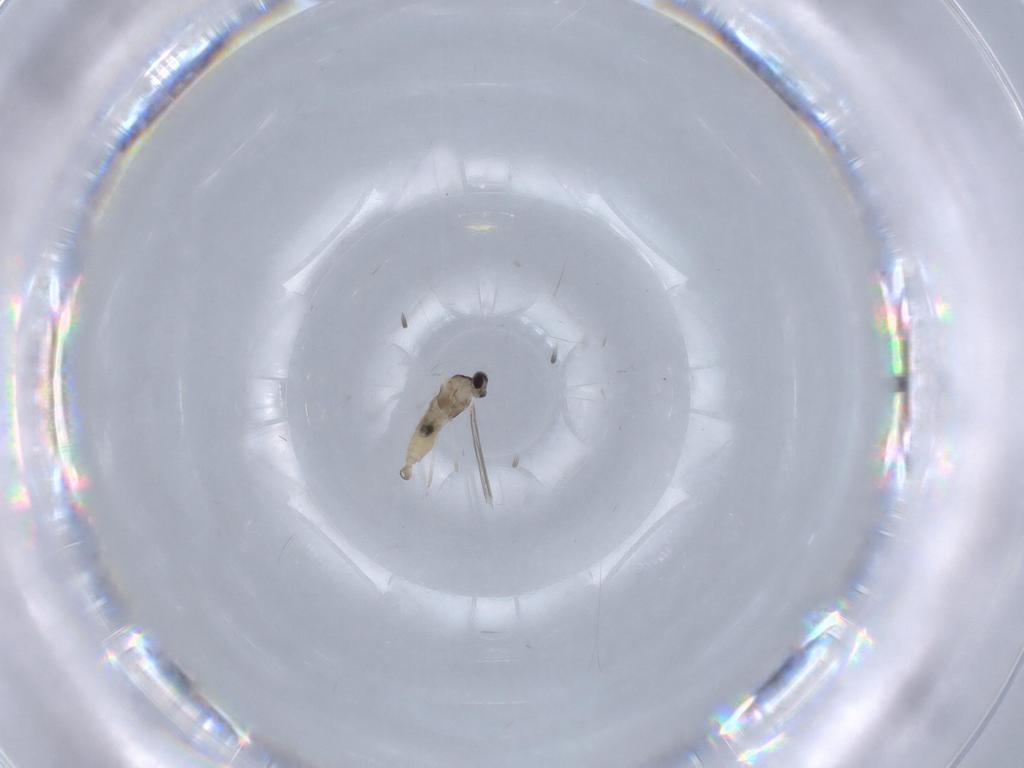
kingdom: Animalia
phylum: Arthropoda
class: Insecta
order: Diptera
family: Cecidomyiidae
